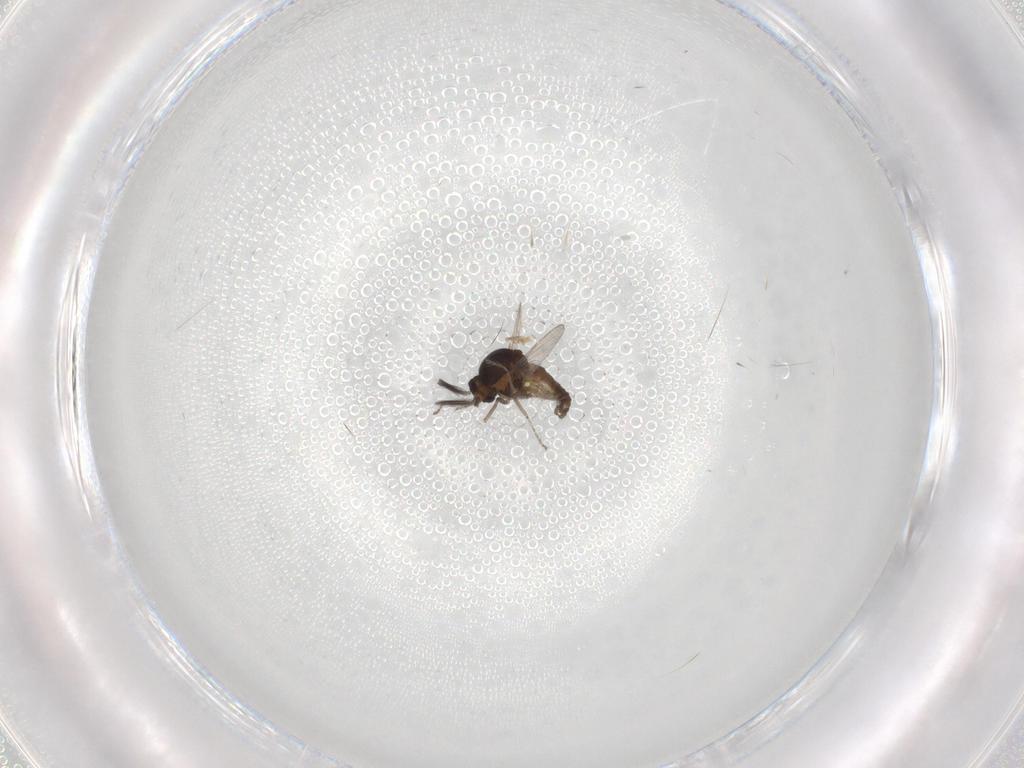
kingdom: Animalia
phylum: Arthropoda
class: Insecta
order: Diptera
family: Ceratopogonidae
